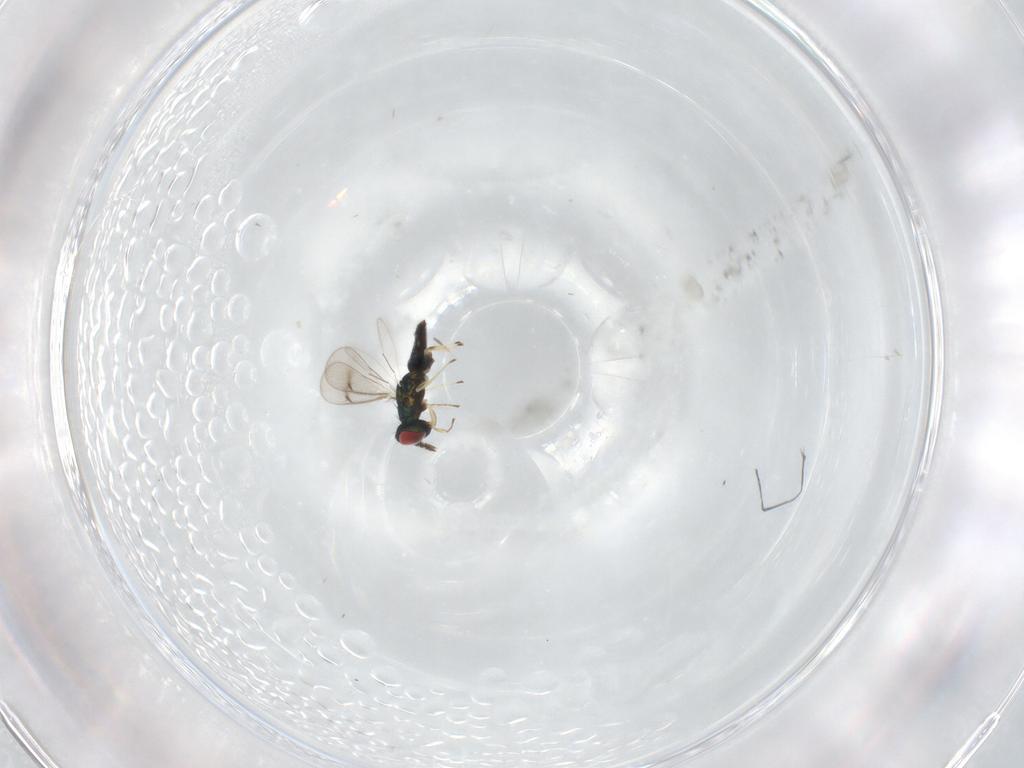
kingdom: Animalia
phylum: Arthropoda
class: Insecta
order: Hymenoptera
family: Eulophidae
